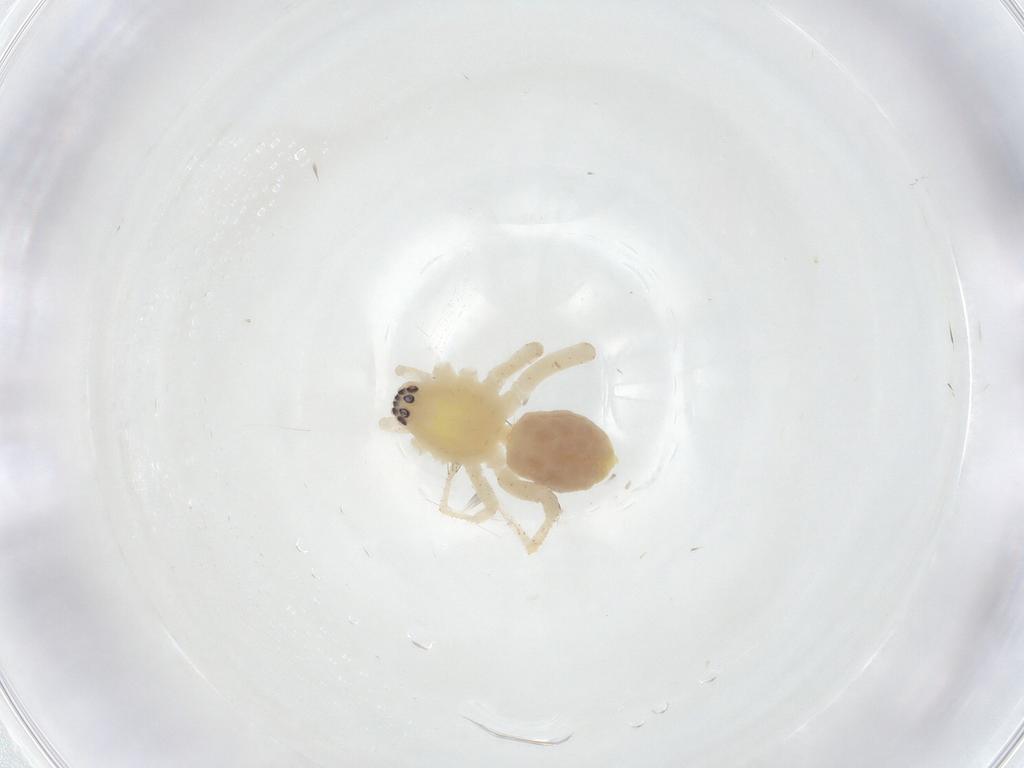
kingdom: Animalia
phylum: Arthropoda
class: Arachnida
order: Araneae
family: Anyphaenidae
